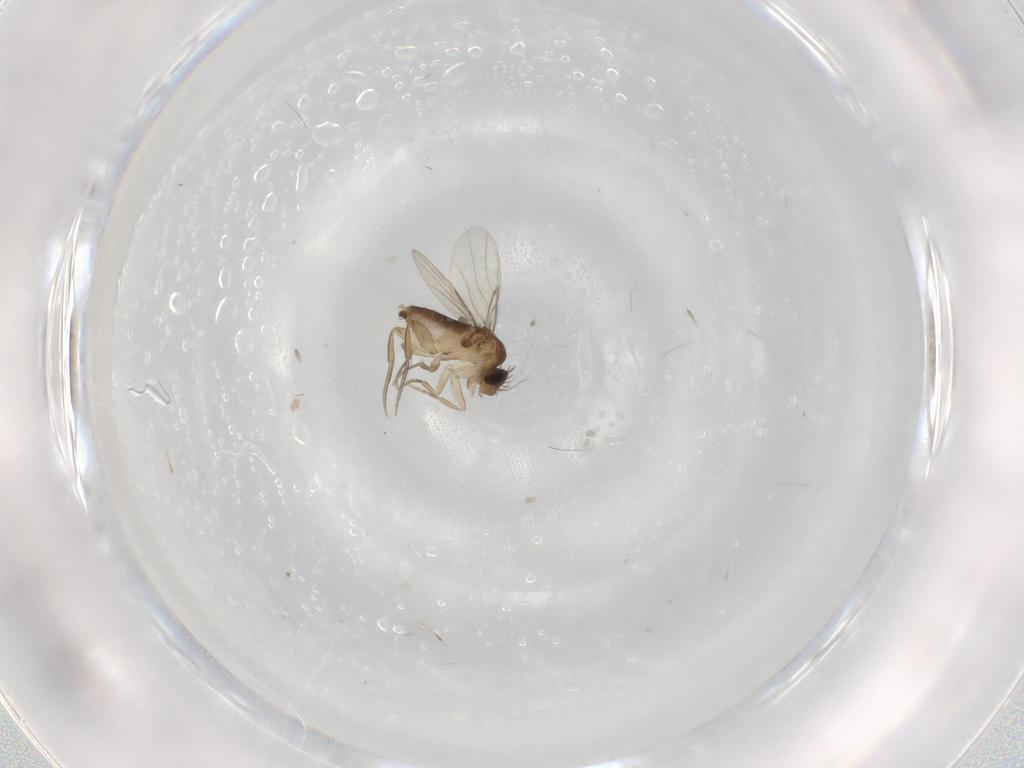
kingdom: Animalia
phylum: Arthropoda
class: Insecta
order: Diptera
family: Phoridae
